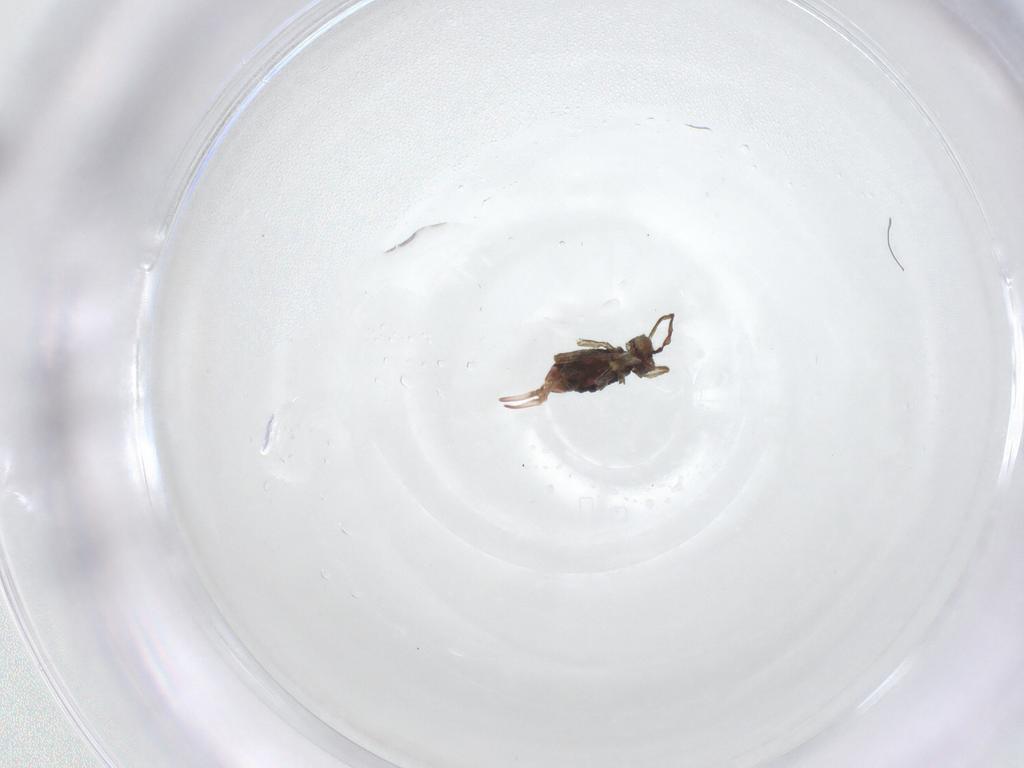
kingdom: Animalia
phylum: Arthropoda
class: Collembola
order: Symphypleona
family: Dicyrtomidae
